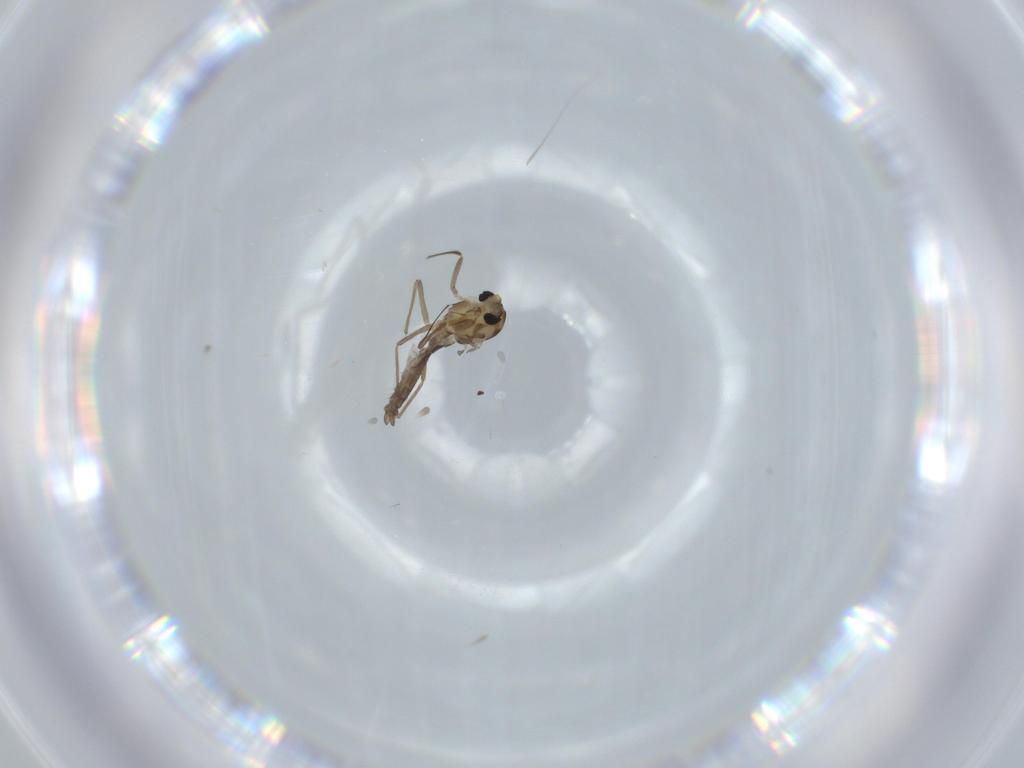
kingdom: Animalia
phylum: Arthropoda
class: Insecta
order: Diptera
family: Chironomidae
